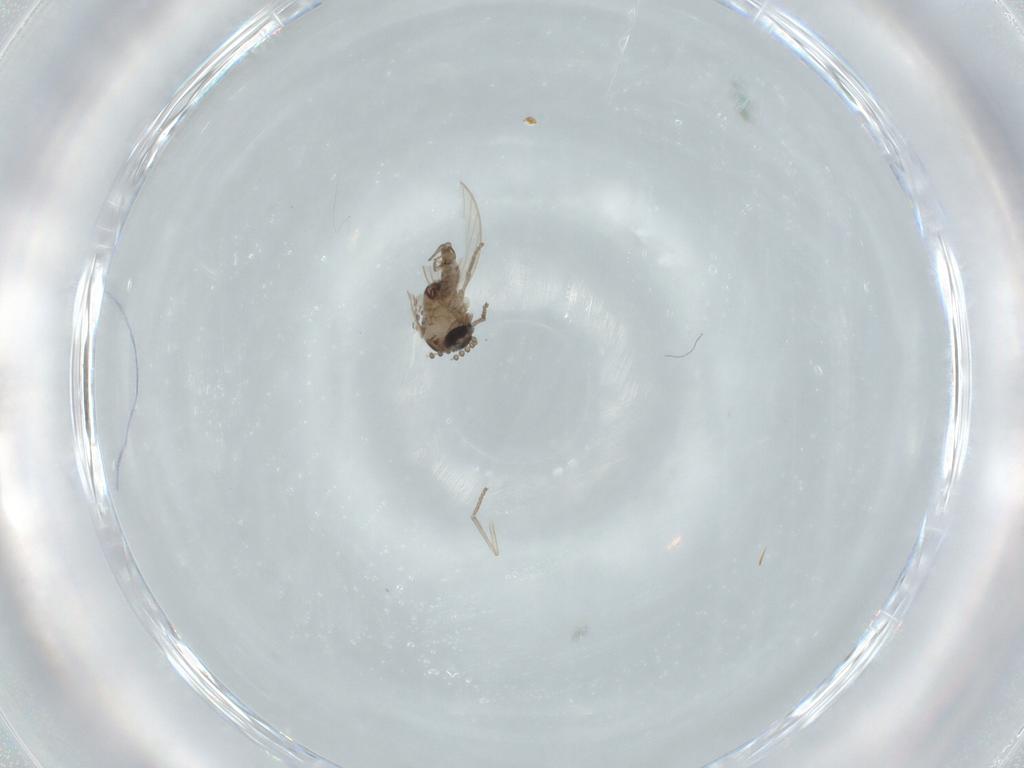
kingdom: Animalia
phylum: Arthropoda
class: Insecta
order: Diptera
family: Psychodidae
